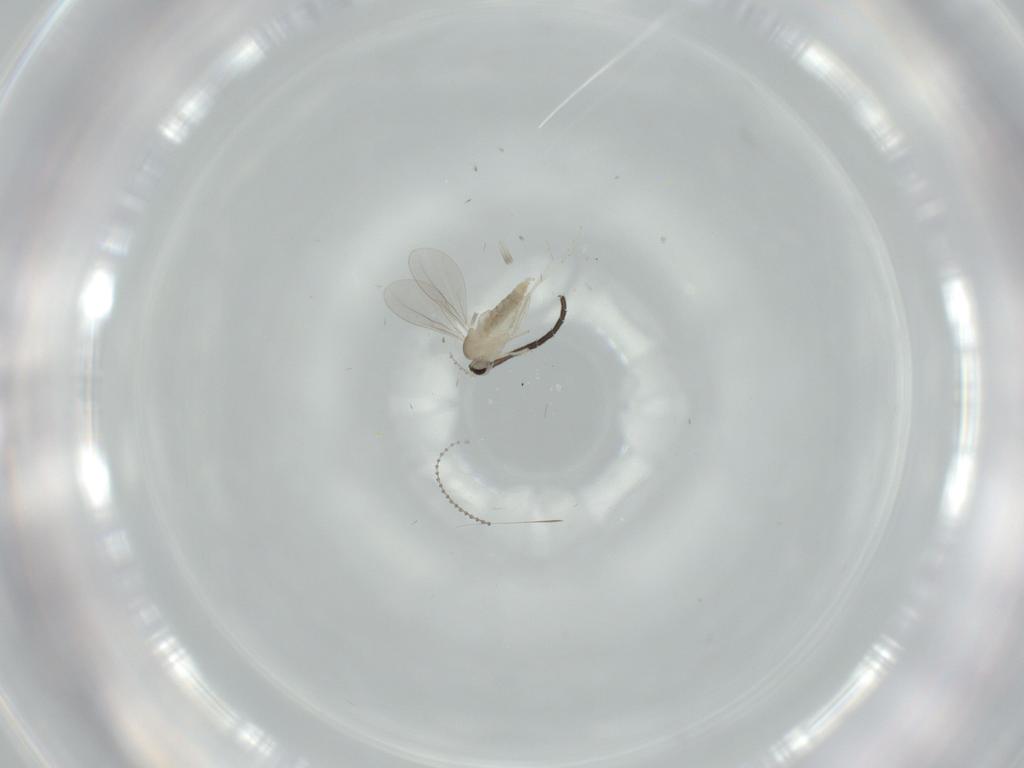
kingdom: Animalia
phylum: Arthropoda
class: Insecta
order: Diptera
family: Cecidomyiidae
